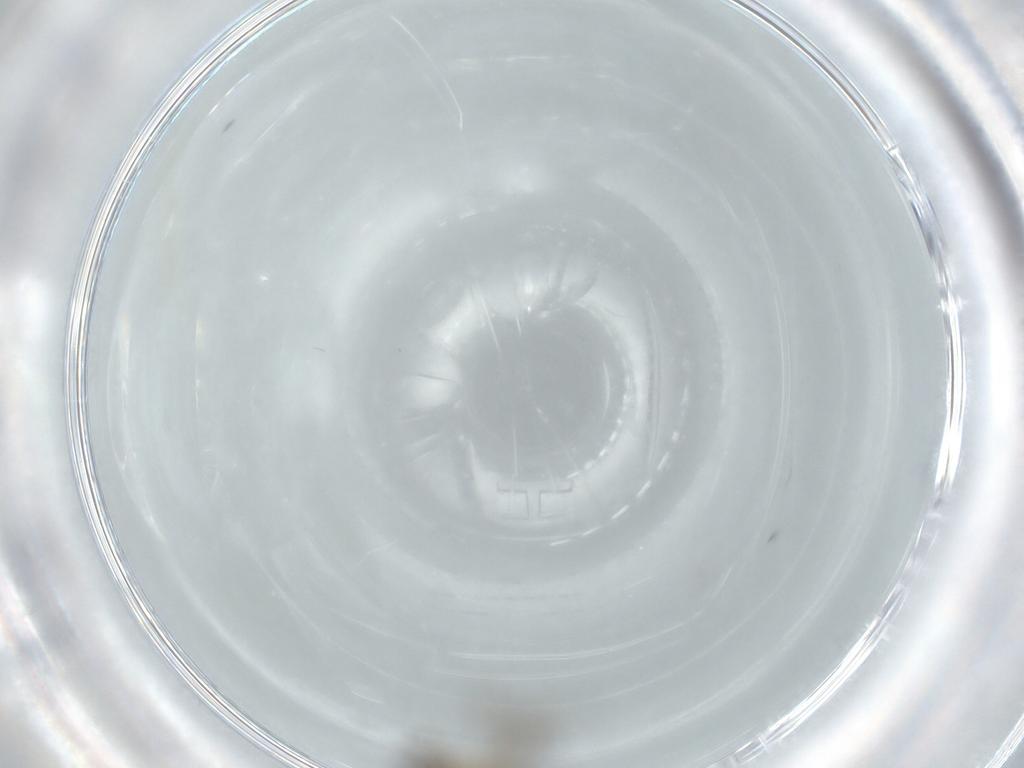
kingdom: Animalia
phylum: Arthropoda
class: Insecta
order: Diptera
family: Chironomidae
